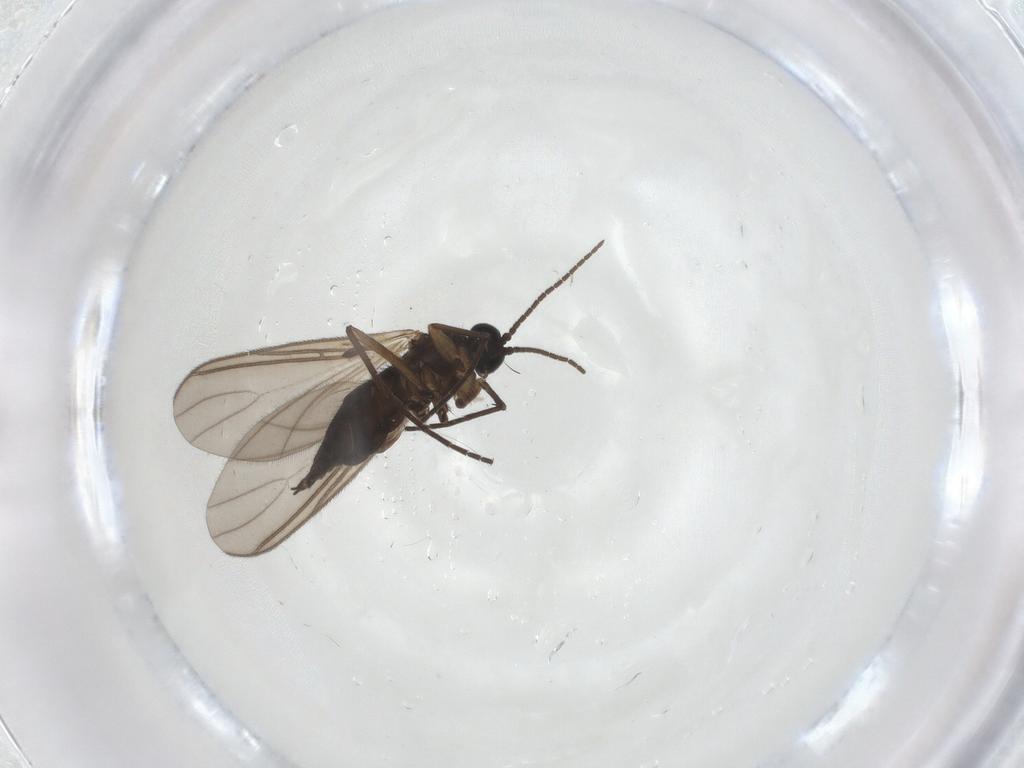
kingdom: Animalia
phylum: Arthropoda
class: Insecta
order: Diptera
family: Sciaridae
